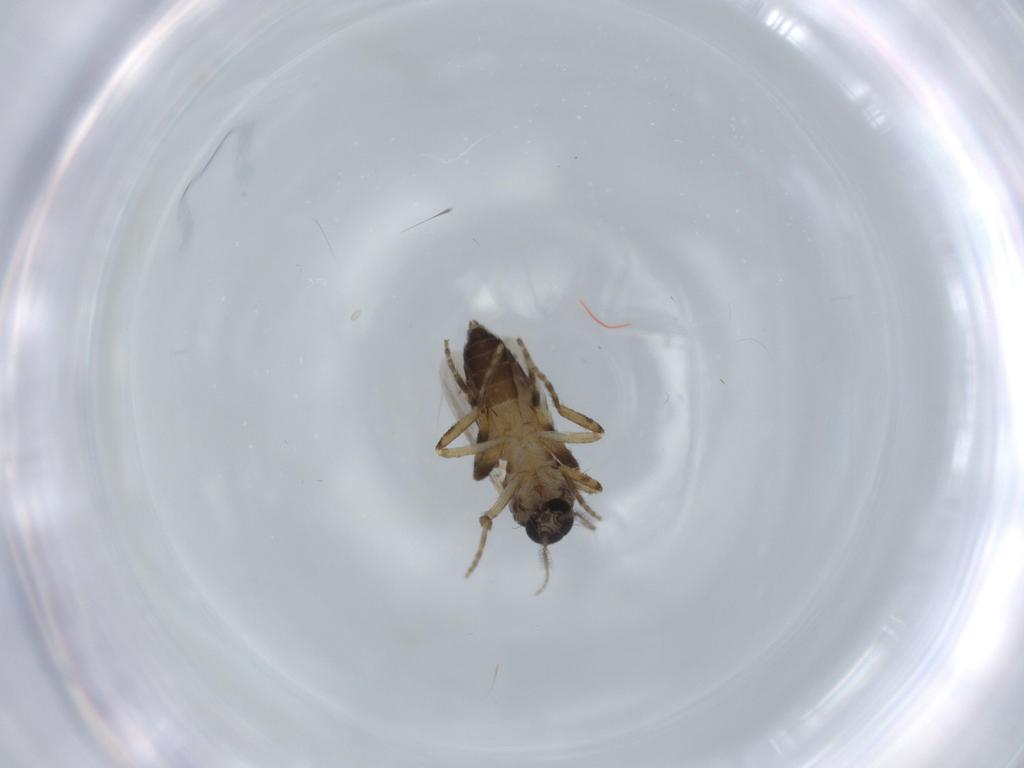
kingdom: Animalia
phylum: Arthropoda
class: Insecta
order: Diptera
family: Ceratopogonidae
